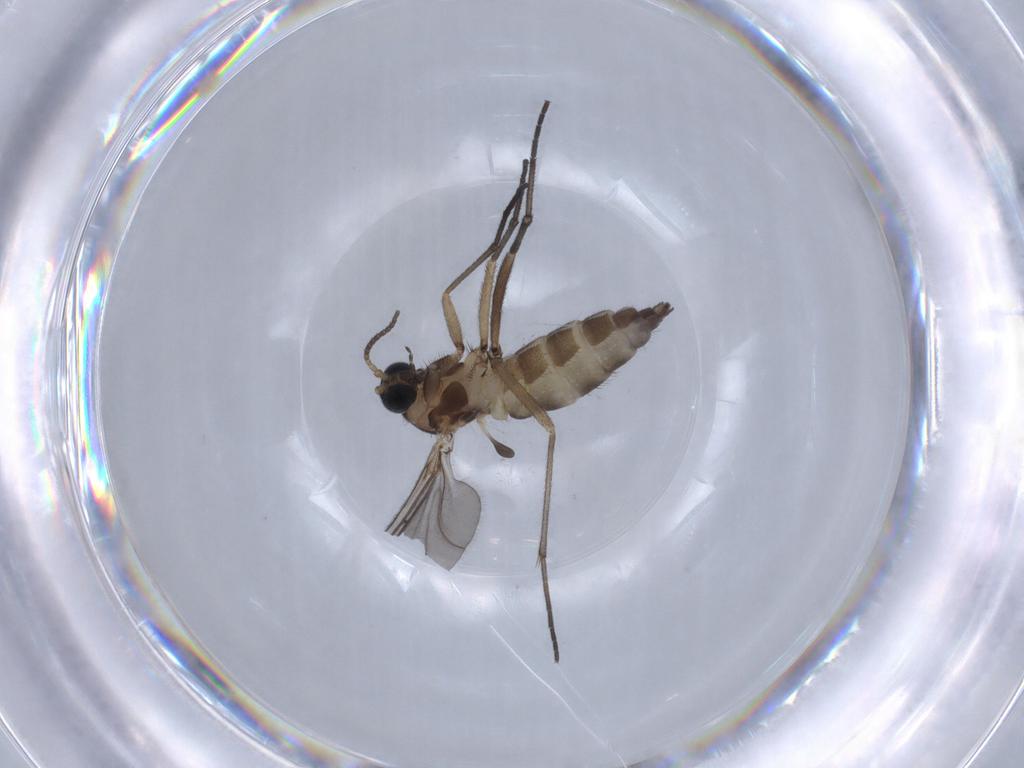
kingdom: Animalia
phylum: Arthropoda
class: Insecta
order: Diptera
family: Sciaridae
